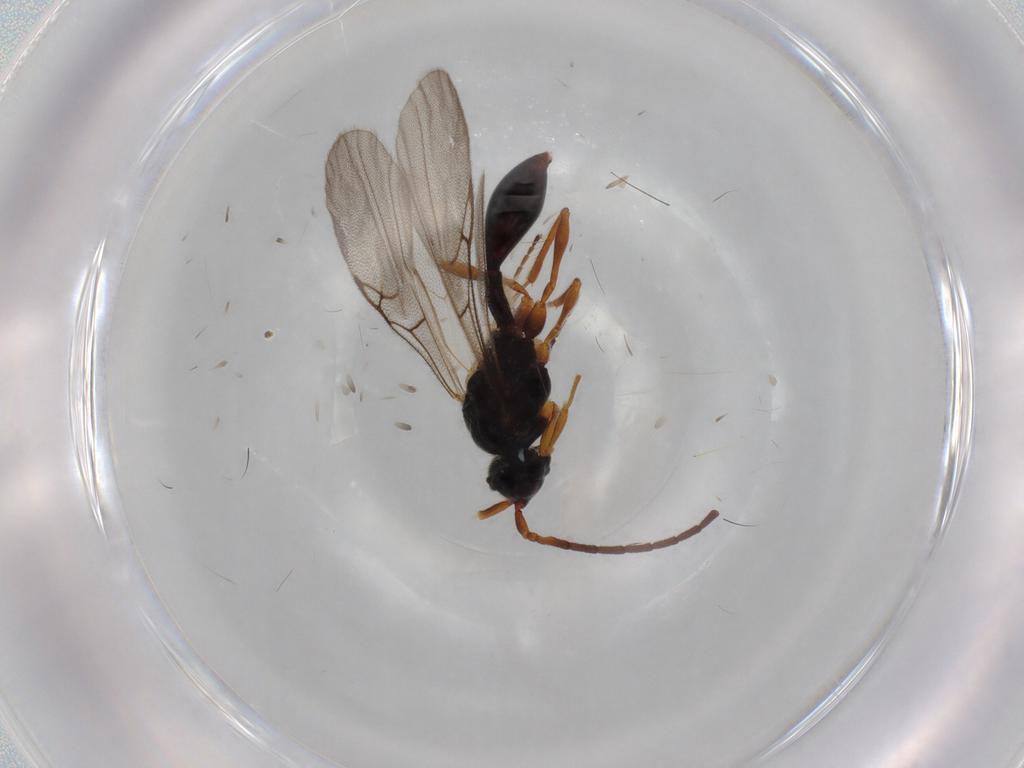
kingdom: Animalia
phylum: Arthropoda
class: Insecta
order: Hymenoptera
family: Vespidae
